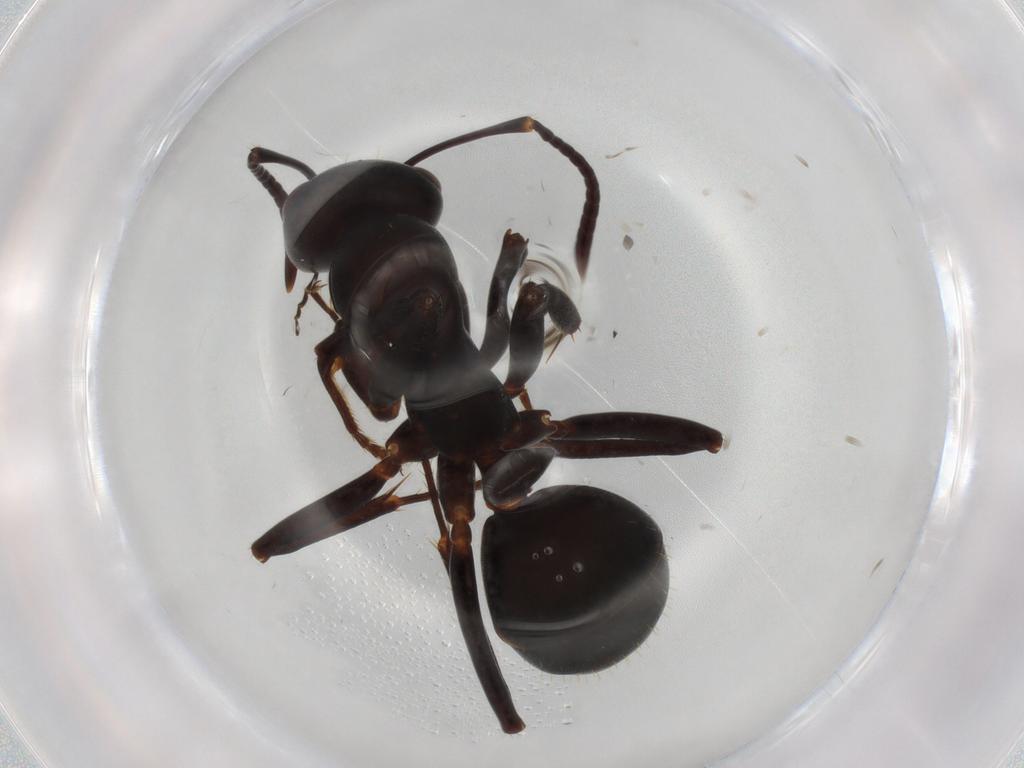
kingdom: Animalia
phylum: Arthropoda
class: Insecta
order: Hymenoptera
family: Formicidae
